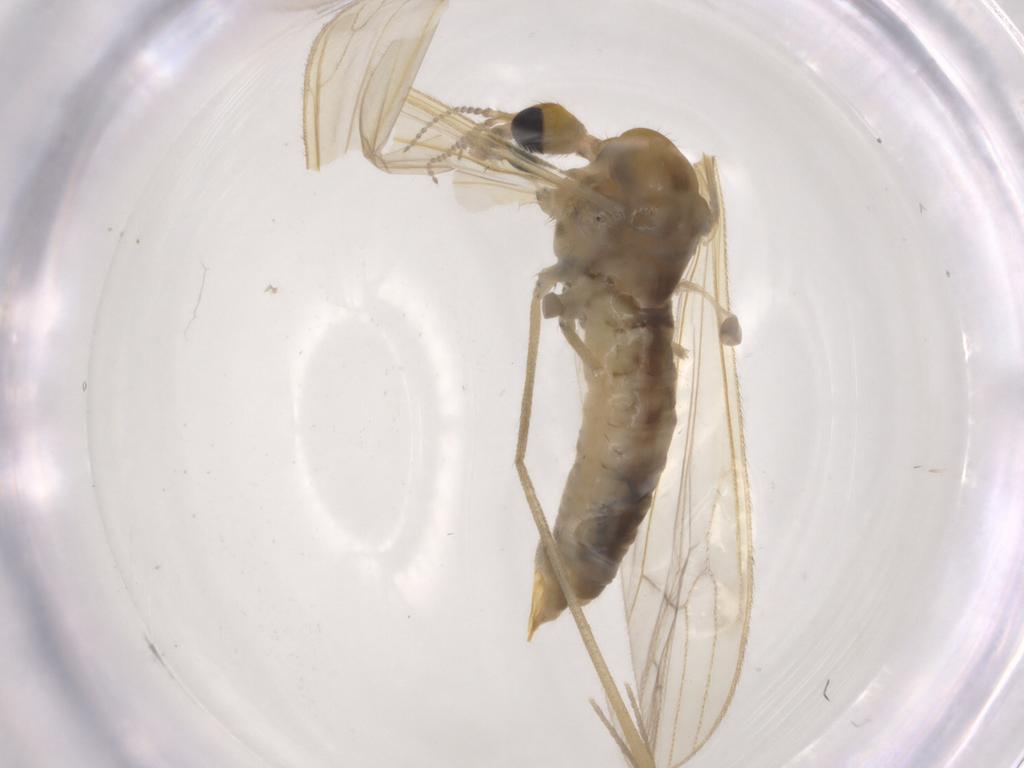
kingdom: Animalia
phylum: Arthropoda
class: Insecta
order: Diptera
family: Limoniidae
